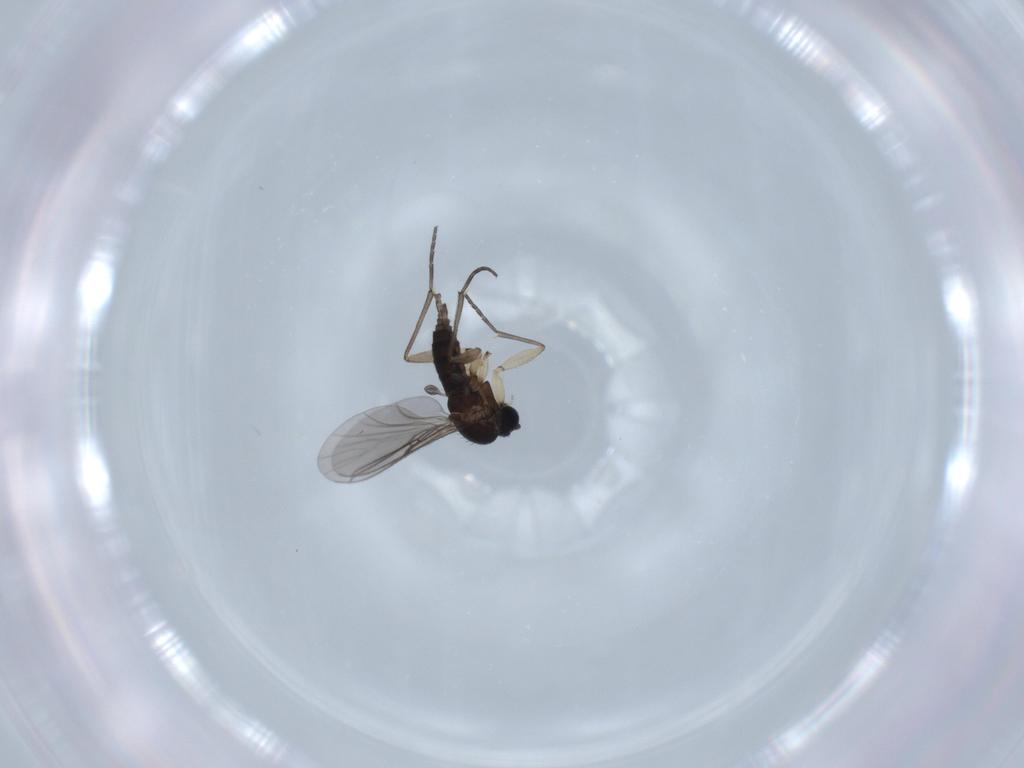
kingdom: Animalia
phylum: Arthropoda
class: Insecta
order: Diptera
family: Sciaridae
